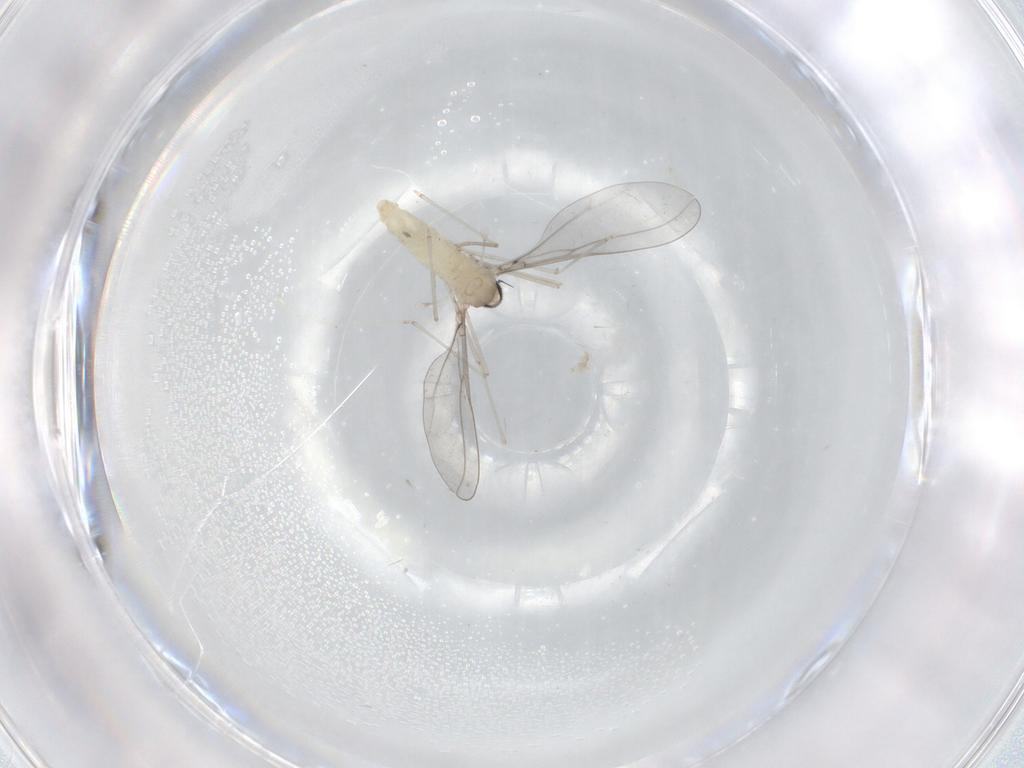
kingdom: Animalia
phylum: Arthropoda
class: Insecta
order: Diptera
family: Cecidomyiidae
